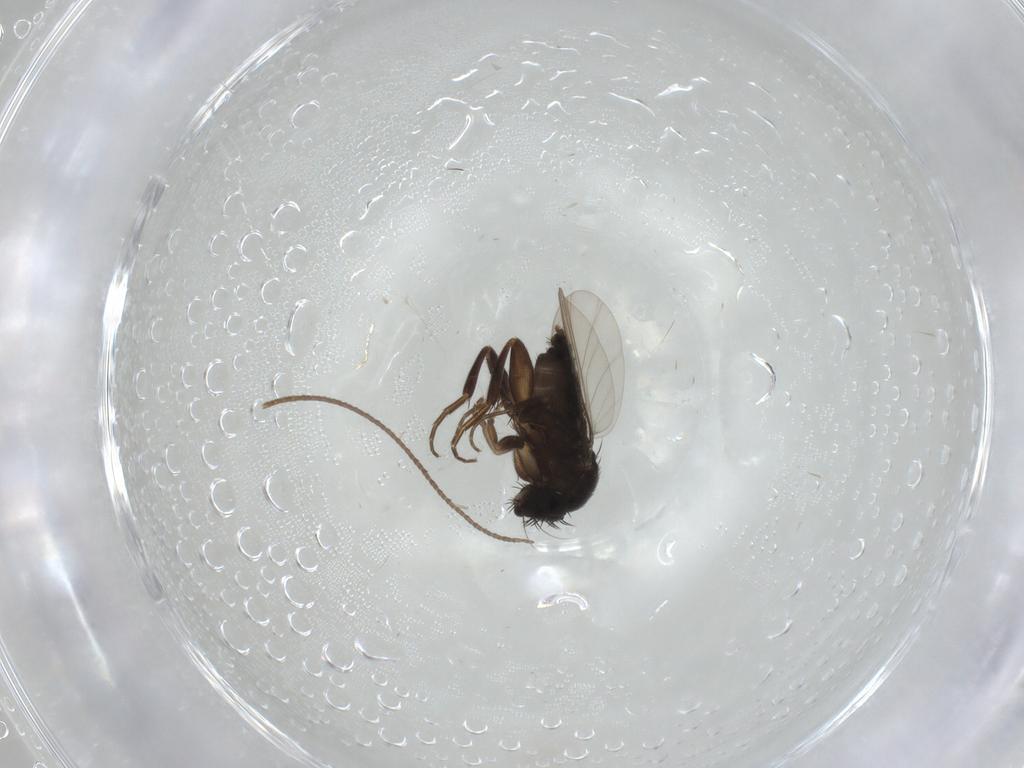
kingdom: Animalia
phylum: Arthropoda
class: Insecta
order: Diptera
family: Phoridae
